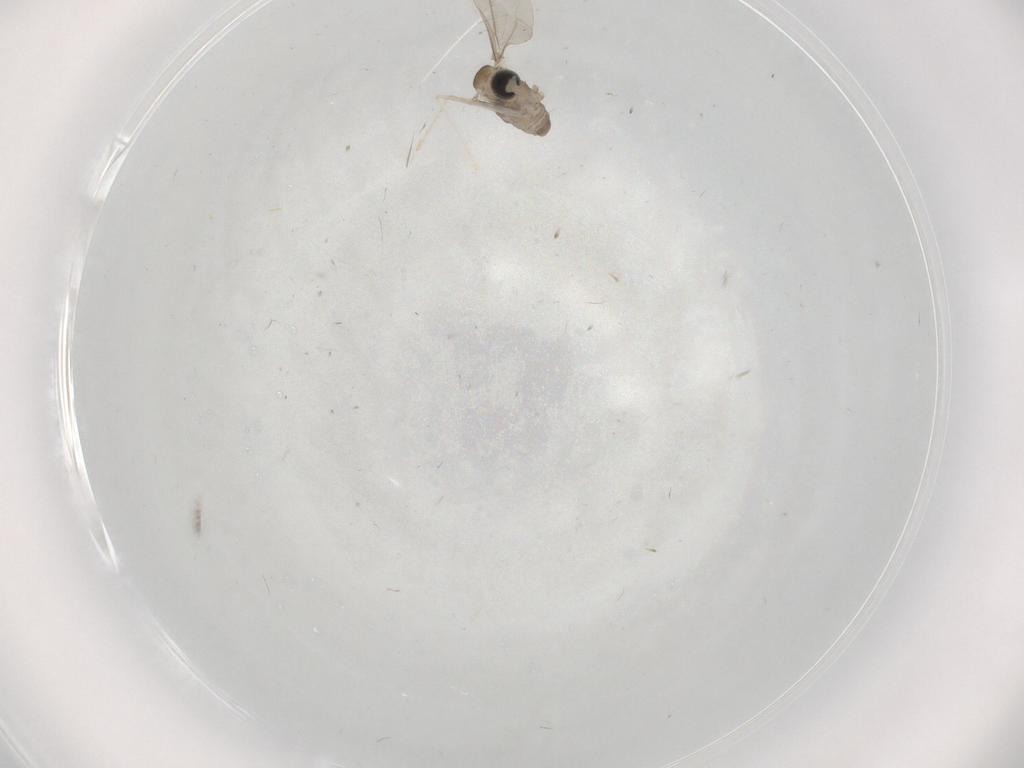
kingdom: Animalia
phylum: Arthropoda
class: Insecta
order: Diptera
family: Cecidomyiidae
